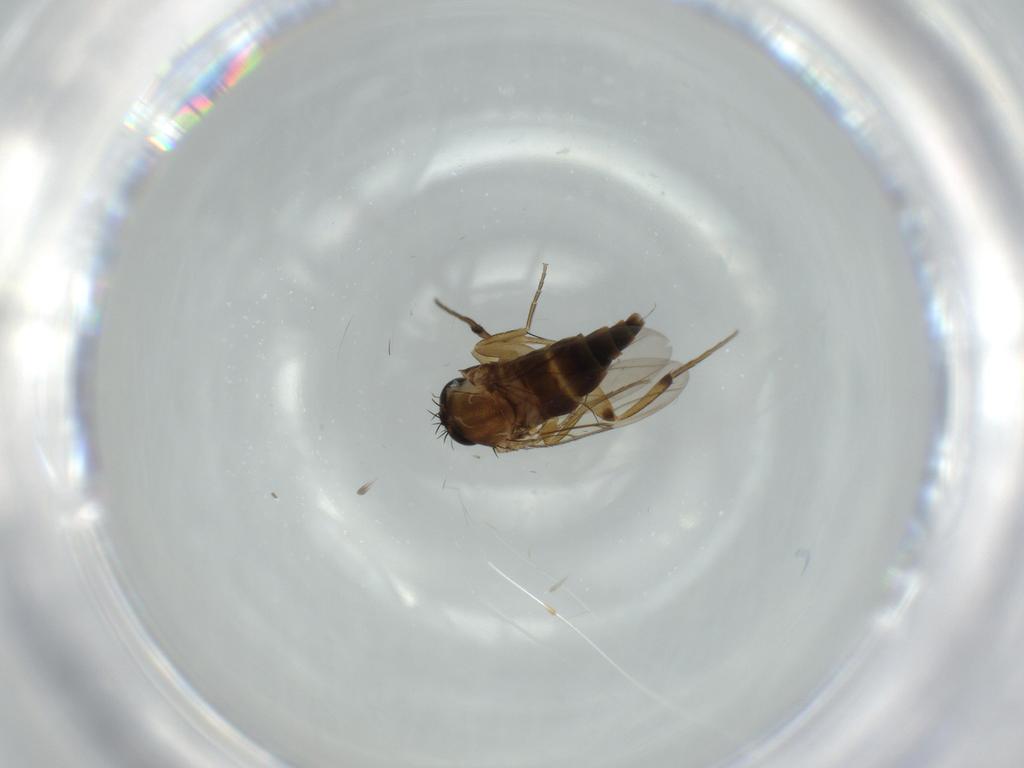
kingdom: Animalia
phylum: Arthropoda
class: Insecta
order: Diptera
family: Phoridae
